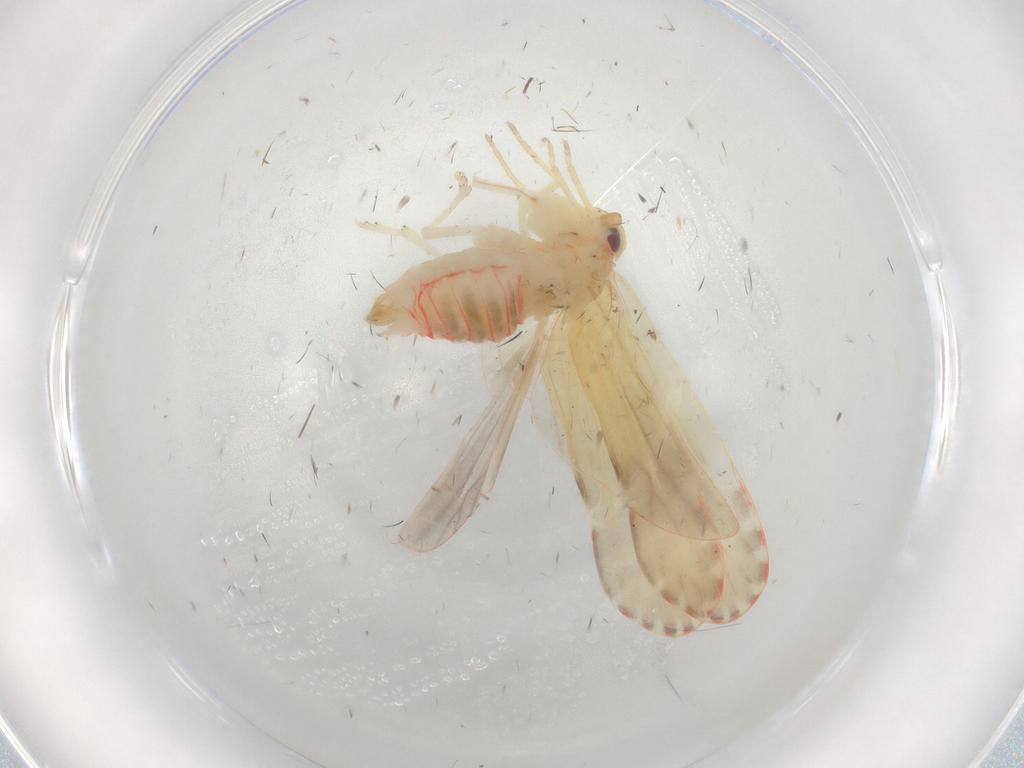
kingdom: Animalia
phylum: Arthropoda
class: Insecta
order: Hemiptera
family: Derbidae
